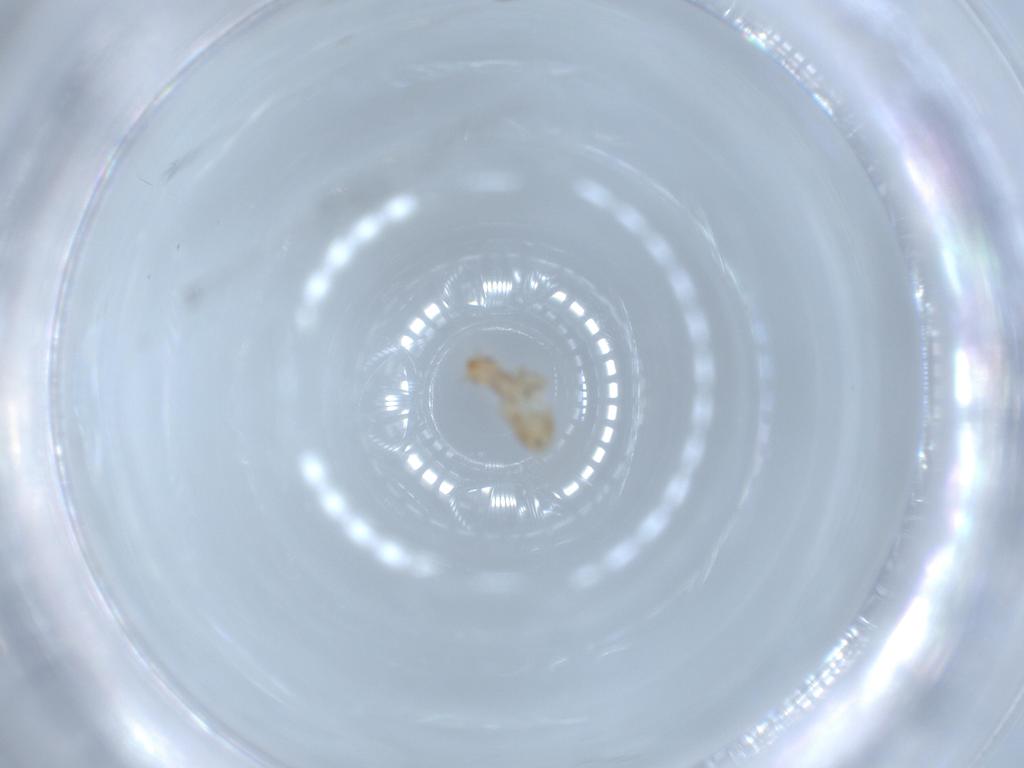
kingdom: Animalia
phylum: Arthropoda
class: Insecta
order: Psocodea
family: Liposcelididae
